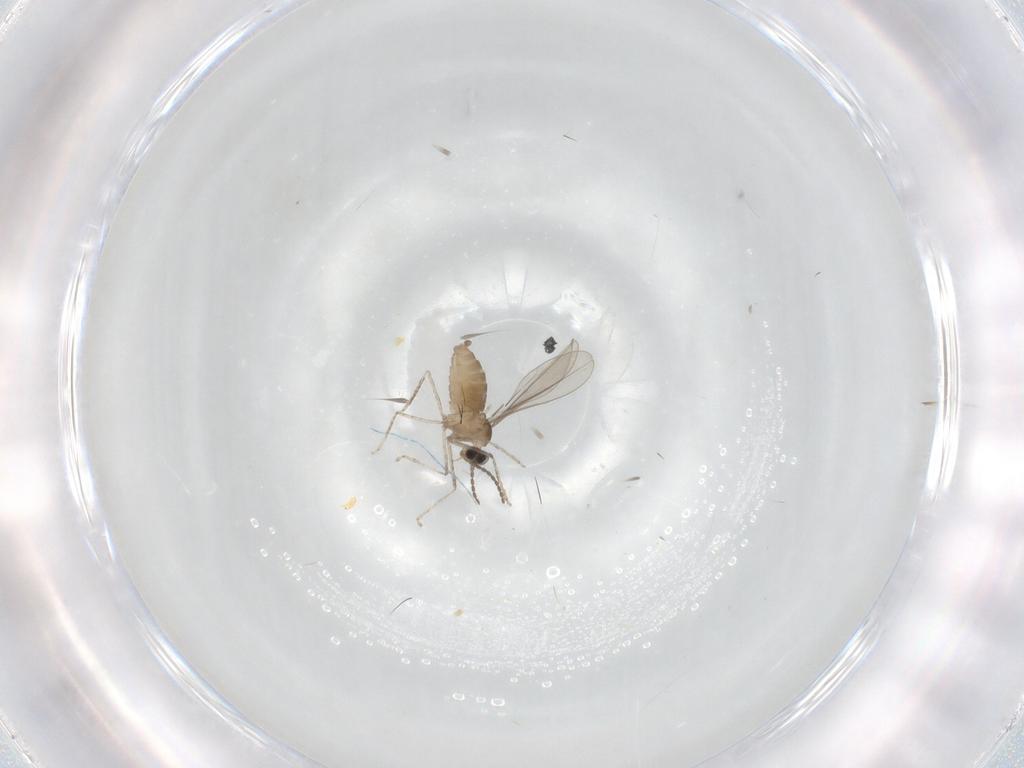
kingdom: Animalia
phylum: Arthropoda
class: Insecta
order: Diptera
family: Cecidomyiidae
